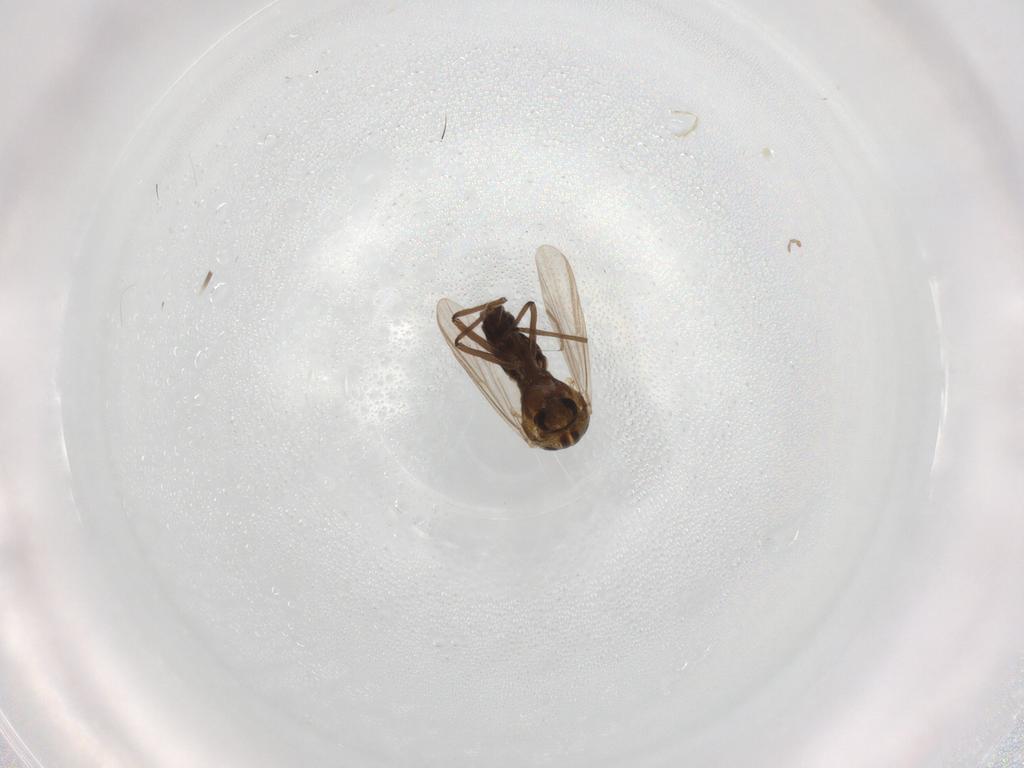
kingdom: Animalia
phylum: Arthropoda
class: Insecta
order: Diptera
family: Chironomidae
